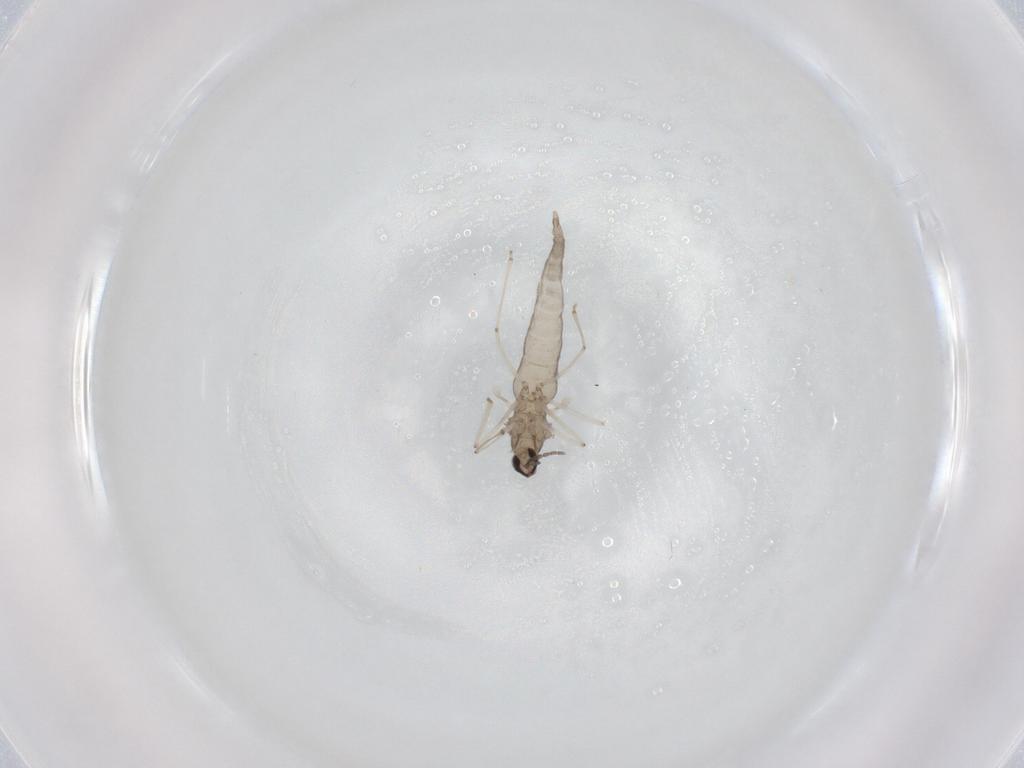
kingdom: Animalia
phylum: Arthropoda
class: Insecta
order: Diptera
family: Cecidomyiidae
